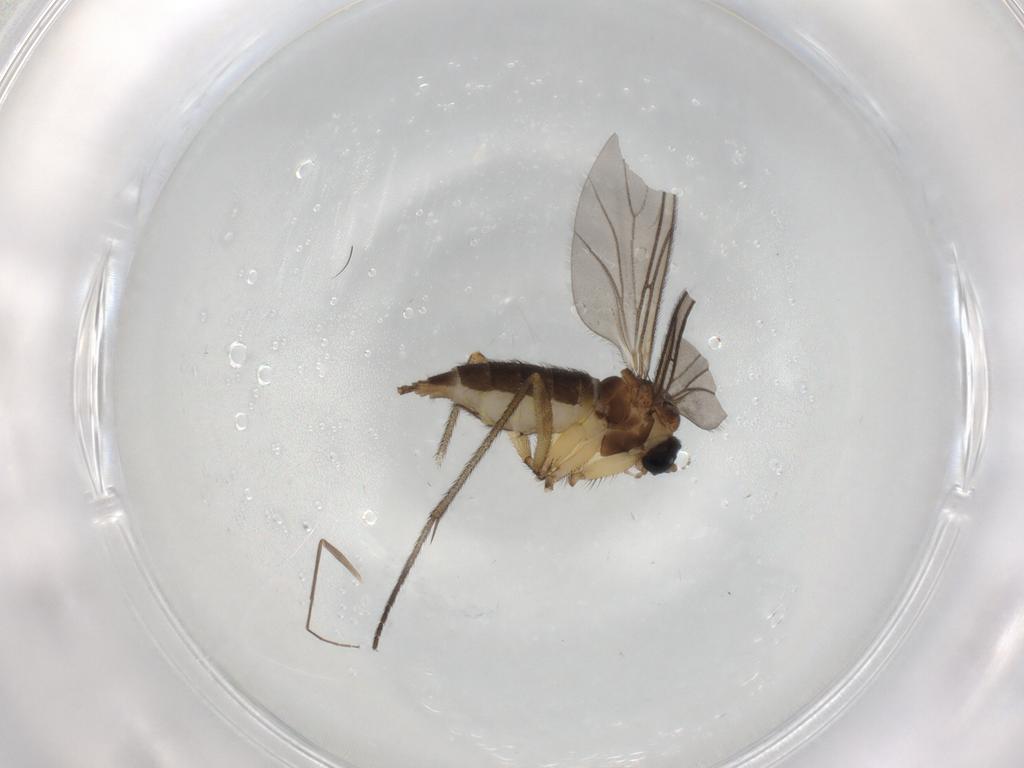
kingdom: Animalia
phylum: Arthropoda
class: Insecta
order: Diptera
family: Sciaridae
